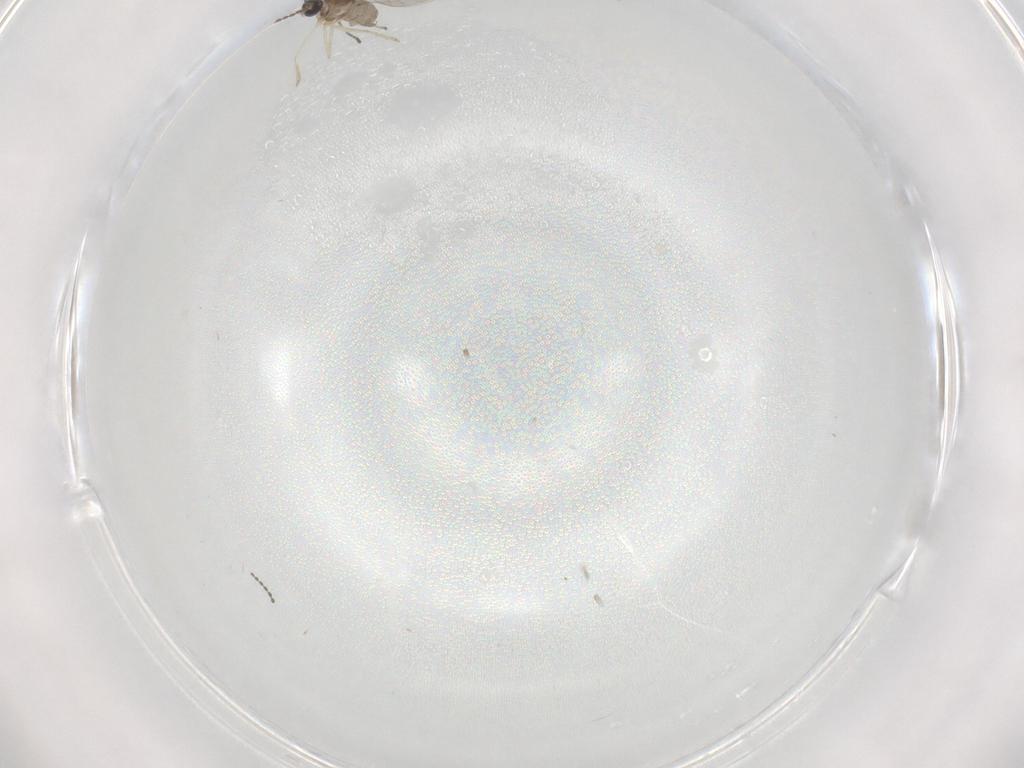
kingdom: Animalia
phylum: Arthropoda
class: Insecta
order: Diptera
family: Cecidomyiidae
